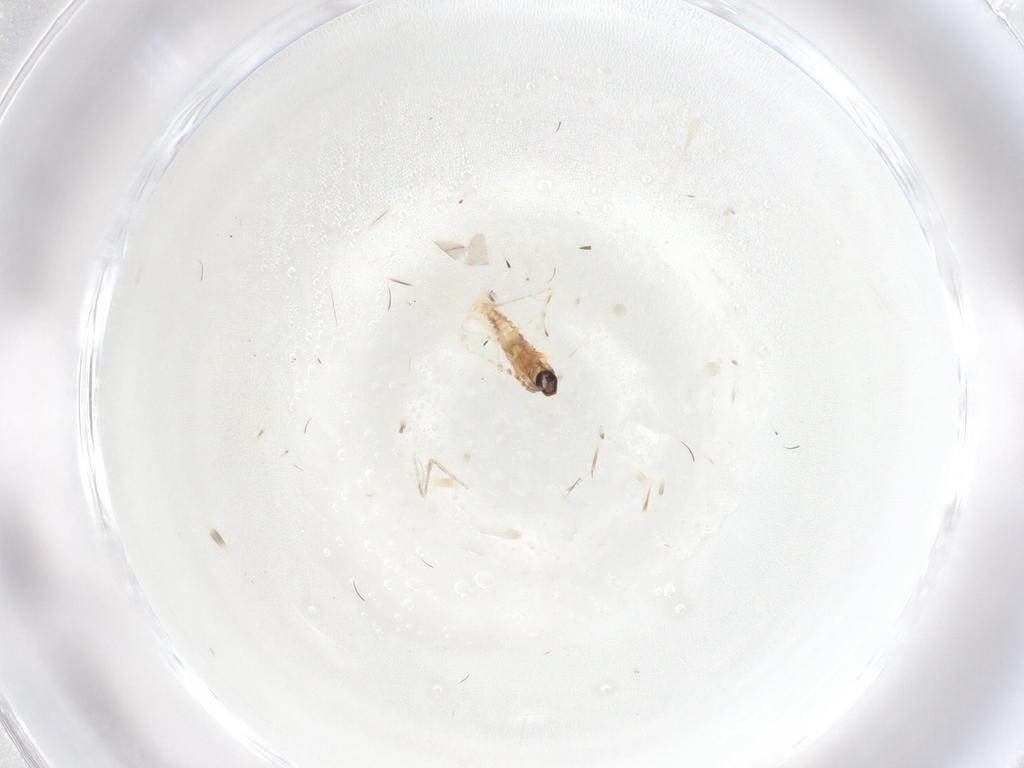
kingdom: Animalia
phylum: Arthropoda
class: Insecta
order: Diptera
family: Cecidomyiidae
